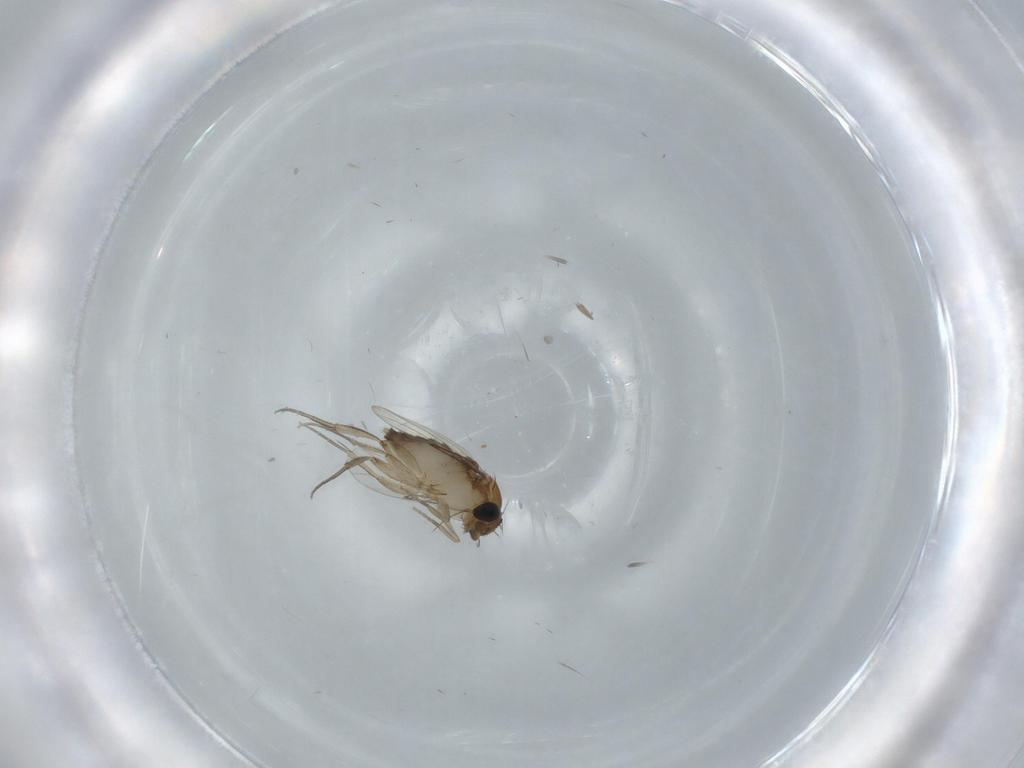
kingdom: Animalia
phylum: Arthropoda
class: Insecta
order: Diptera
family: Phoridae
